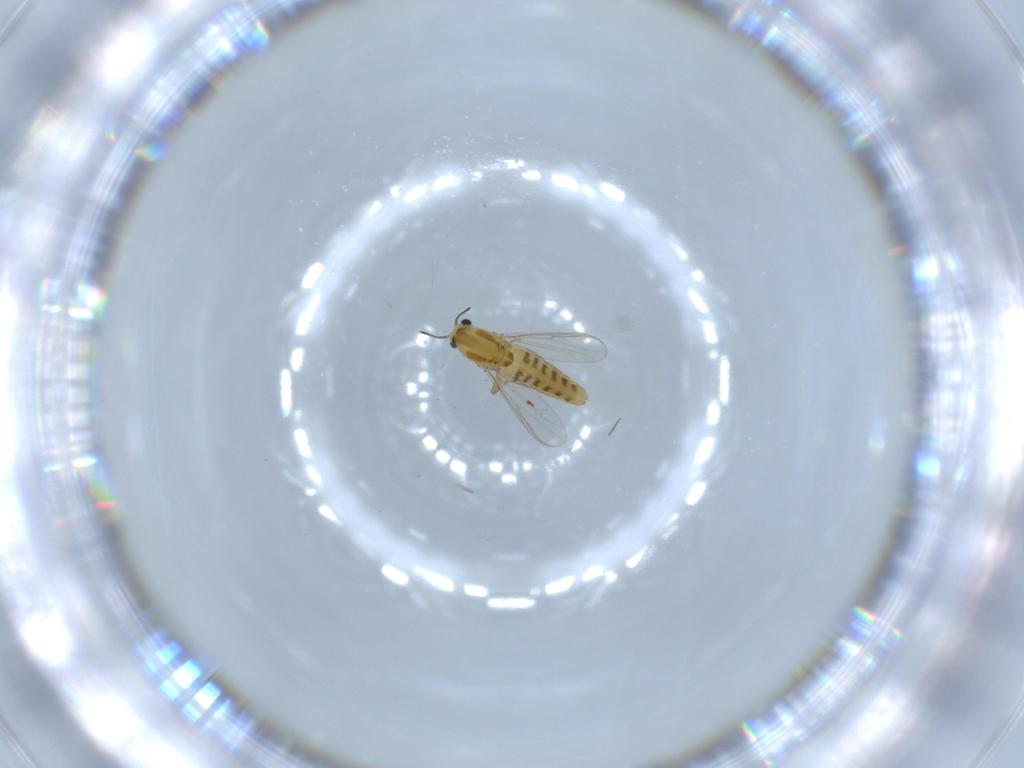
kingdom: Animalia
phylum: Arthropoda
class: Insecta
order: Diptera
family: Chironomidae
